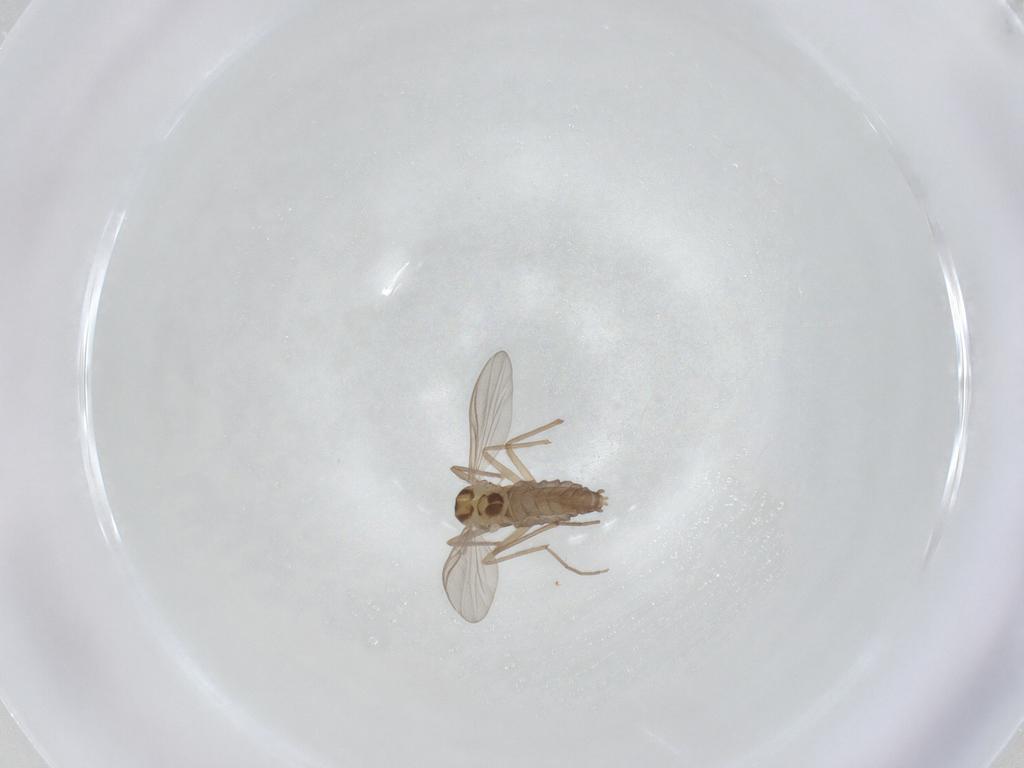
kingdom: Animalia
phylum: Arthropoda
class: Insecta
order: Diptera
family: Chironomidae
